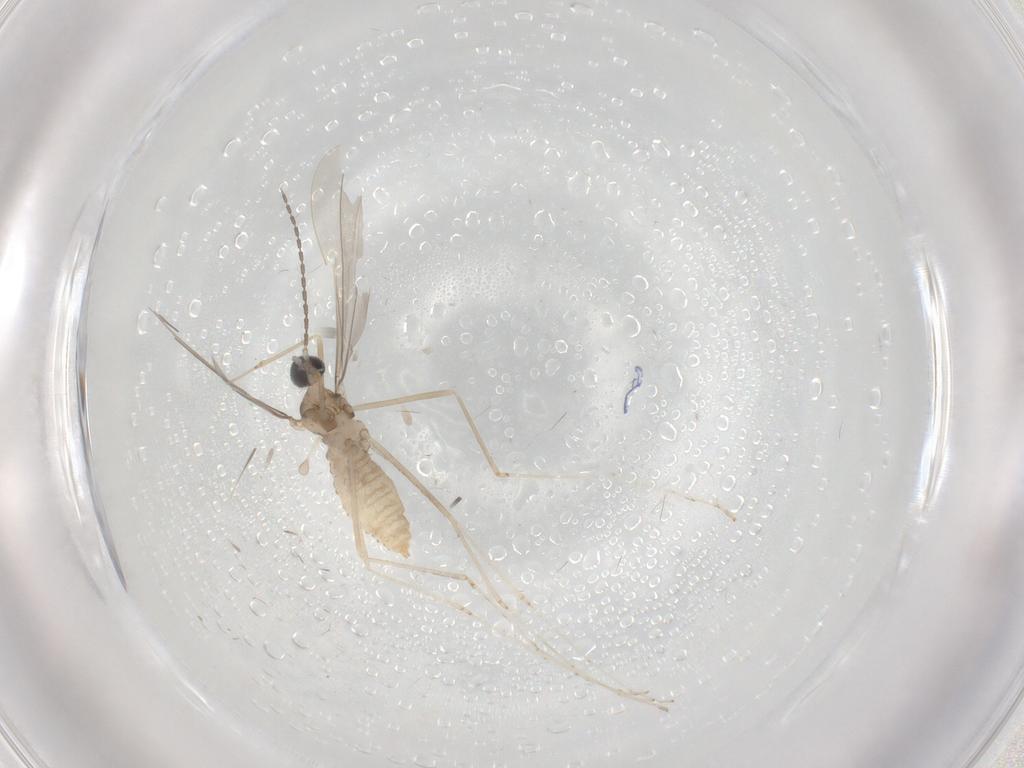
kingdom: Animalia
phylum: Arthropoda
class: Insecta
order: Diptera
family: Cecidomyiidae
